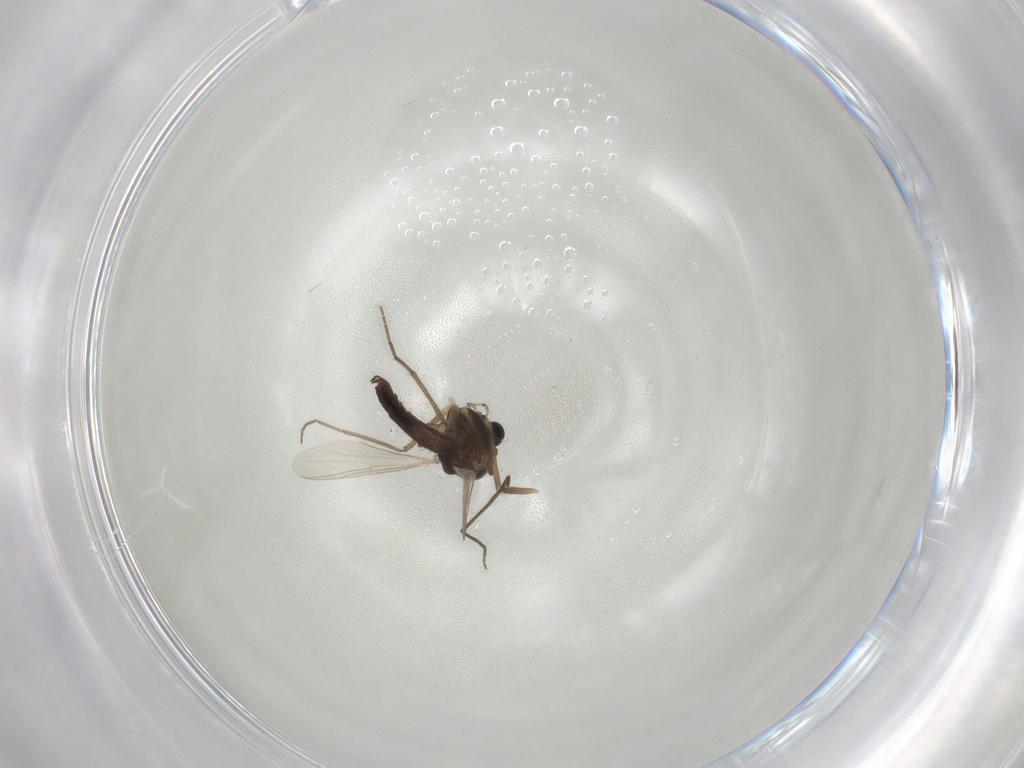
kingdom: Animalia
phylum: Arthropoda
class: Insecta
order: Diptera
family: Chironomidae
